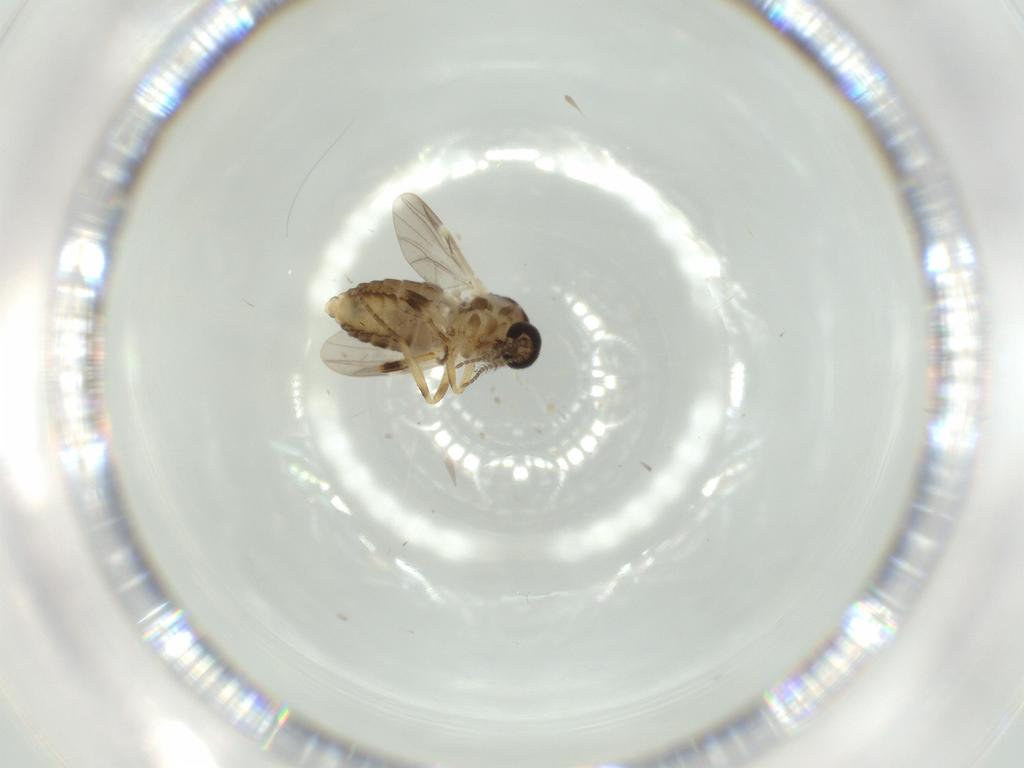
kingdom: Animalia
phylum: Arthropoda
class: Insecta
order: Diptera
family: Ceratopogonidae
